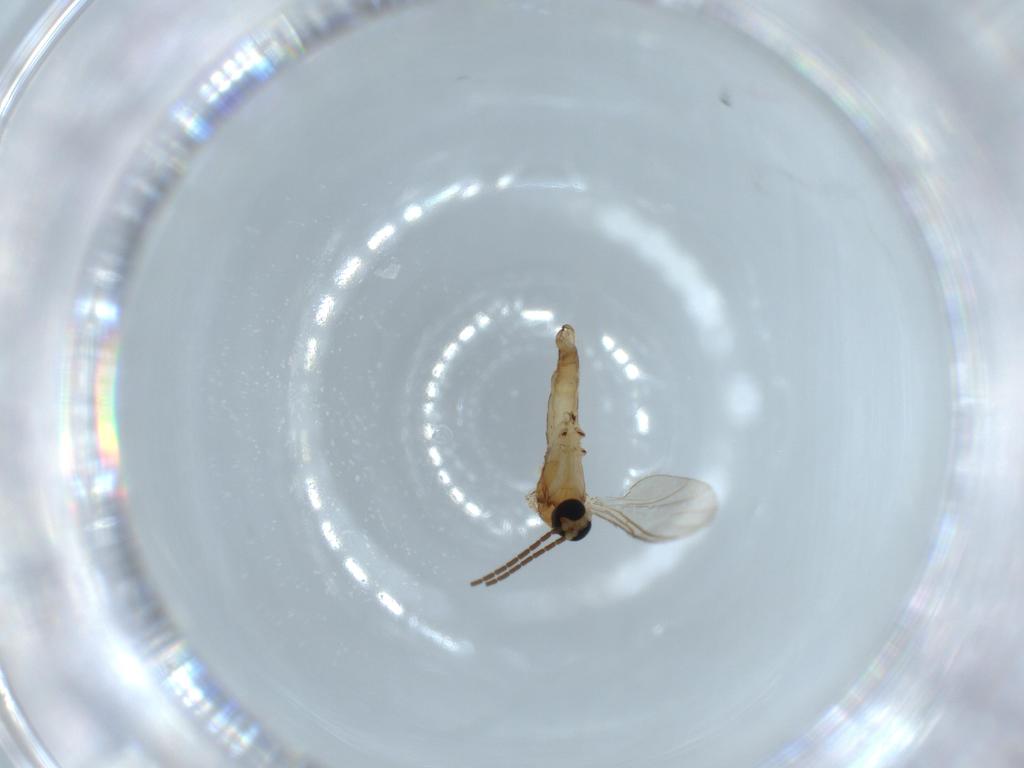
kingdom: Animalia
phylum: Arthropoda
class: Insecta
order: Diptera
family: Sciaridae
